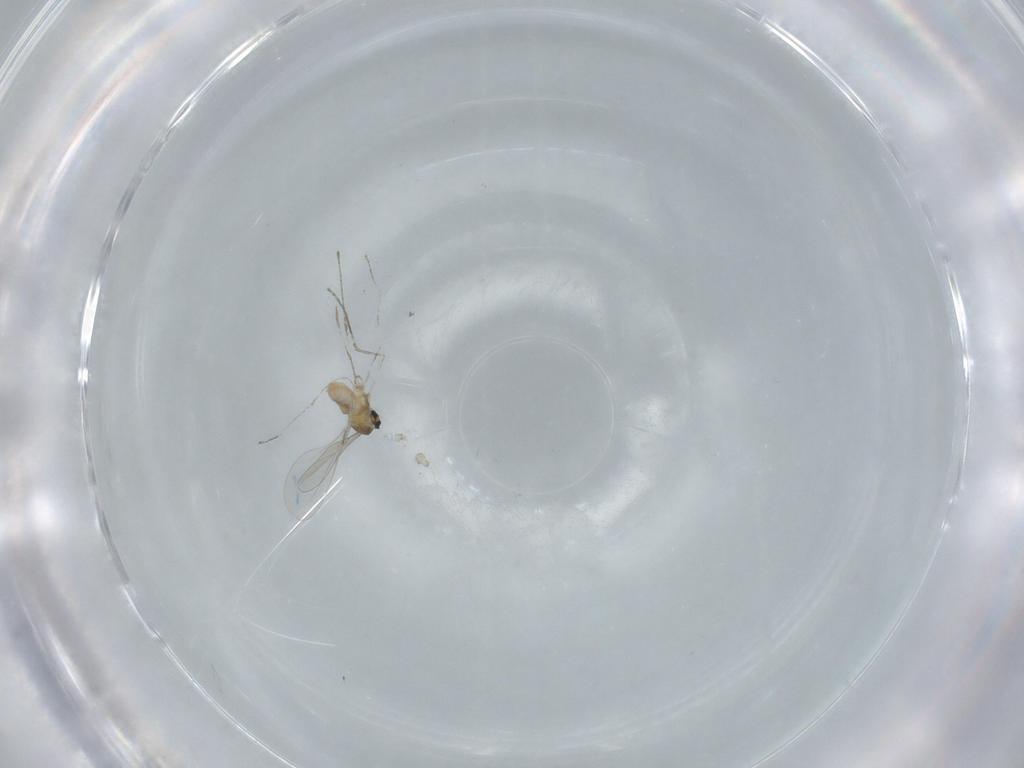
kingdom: Animalia
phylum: Arthropoda
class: Insecta
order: Diptera
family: Cecidomyiidae
